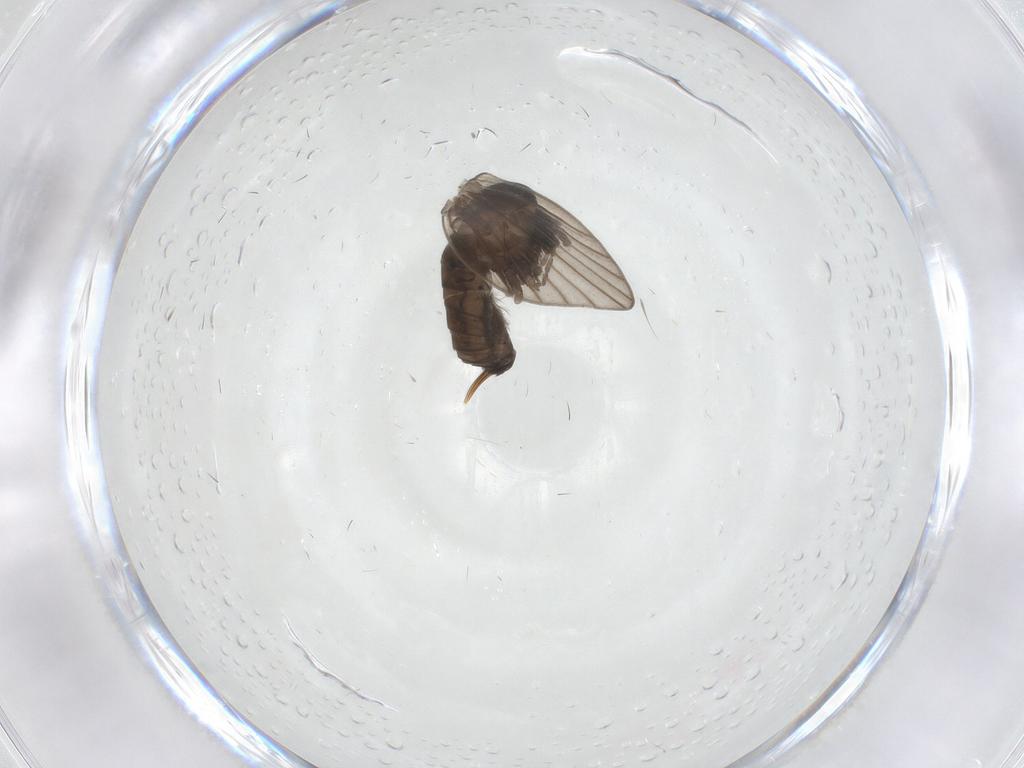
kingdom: Animalia
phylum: Arthropoda
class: Insecta
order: Diptera
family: Psychodidae
